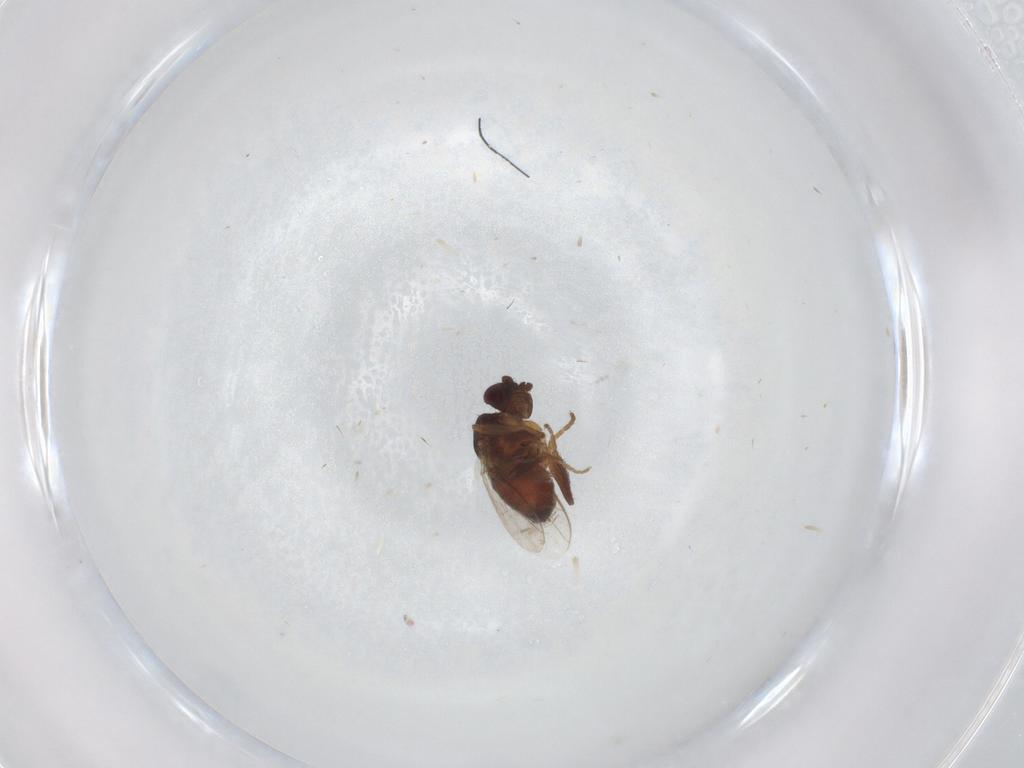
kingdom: Animalia
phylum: Arthropoda
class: Insecta
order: Diptera
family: Sphaeroceridae
